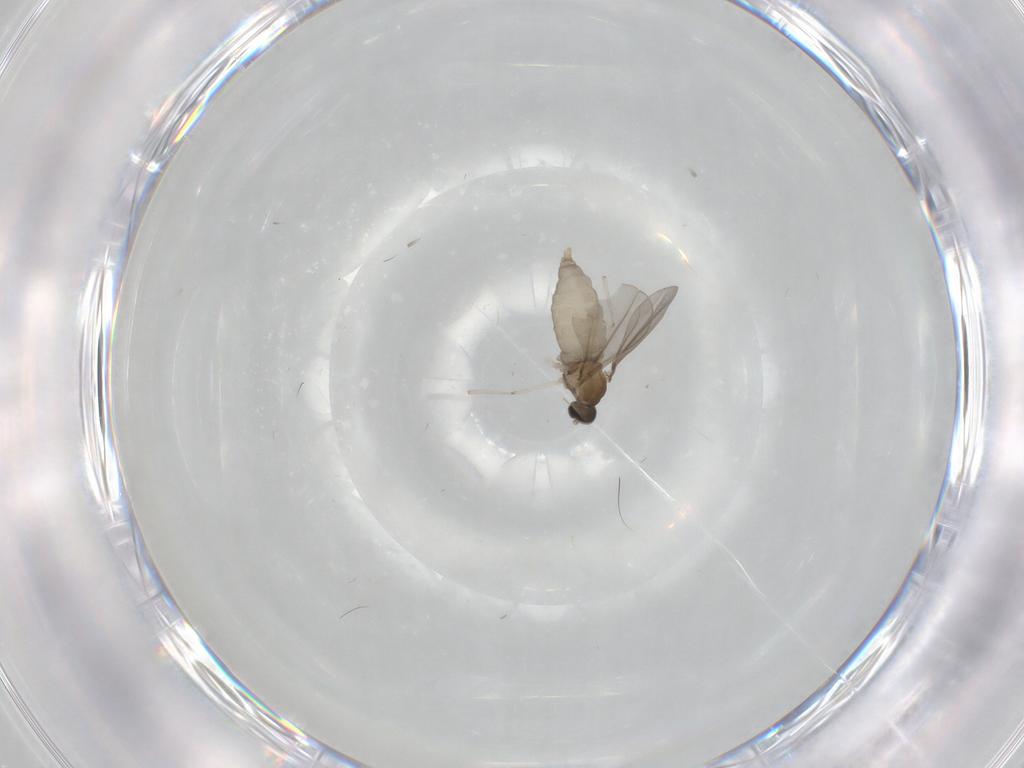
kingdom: Animalia
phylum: Arthropoda
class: Insecta
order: Diptera
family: Cecidomyiidae
